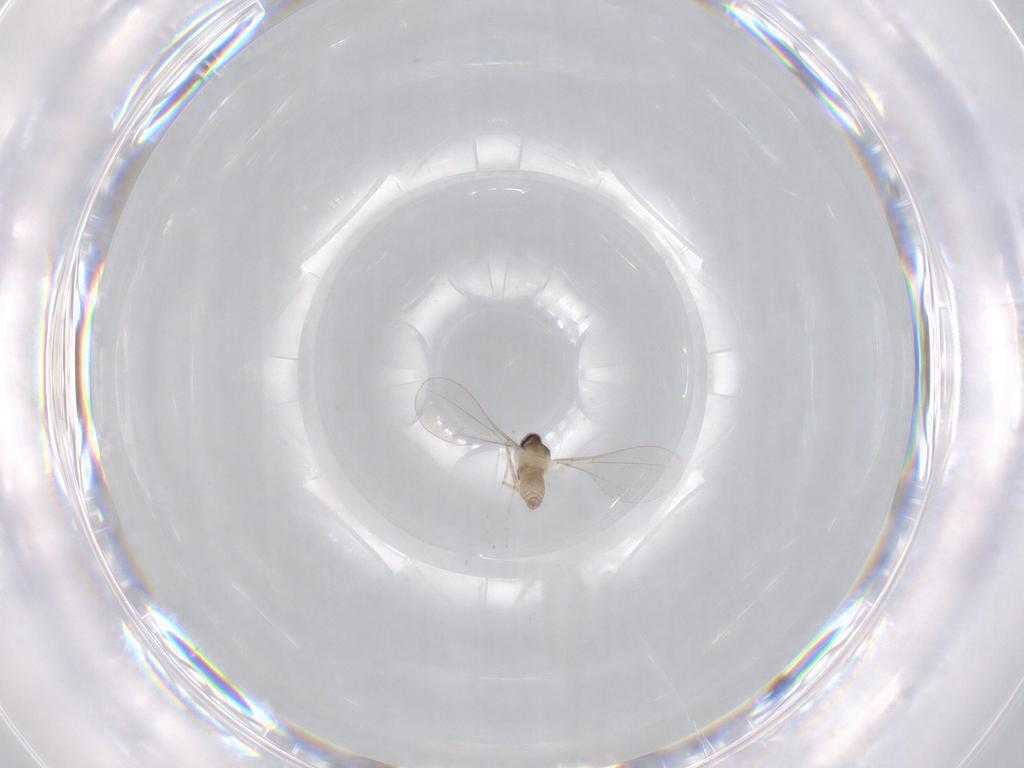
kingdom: Animalia
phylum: Arthropoda
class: Insecta
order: Diptera
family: Cecidomyiidae
